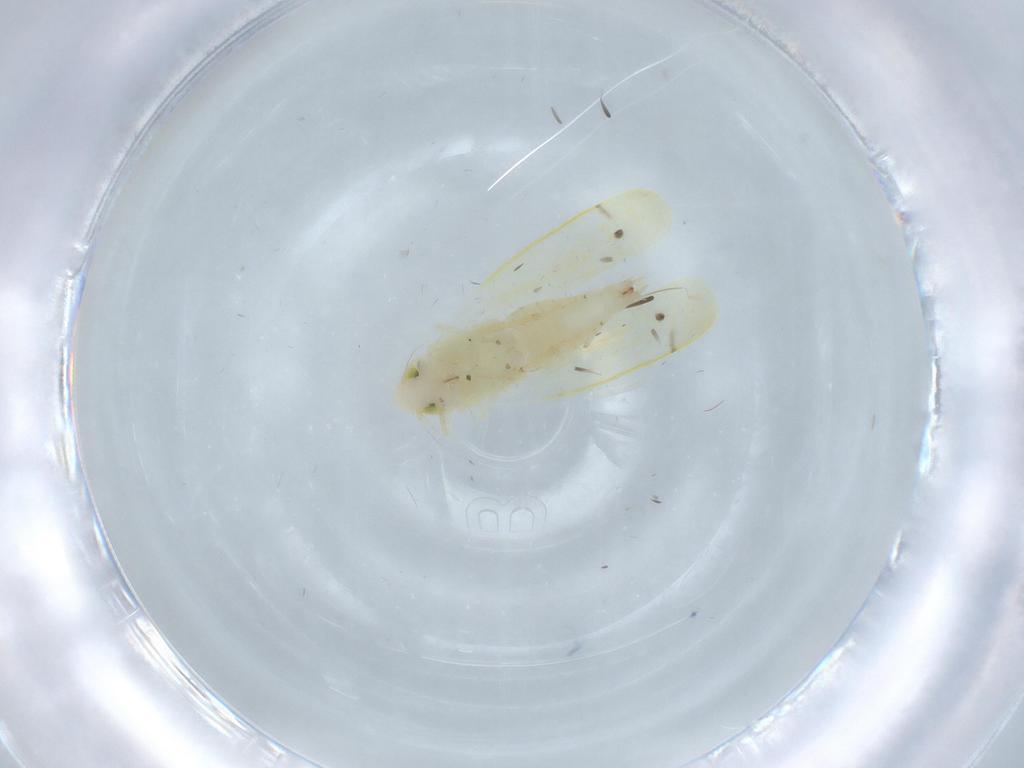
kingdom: Animalia
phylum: Arthropoda
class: Insecta
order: Hemiptera
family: Cicadellidae
